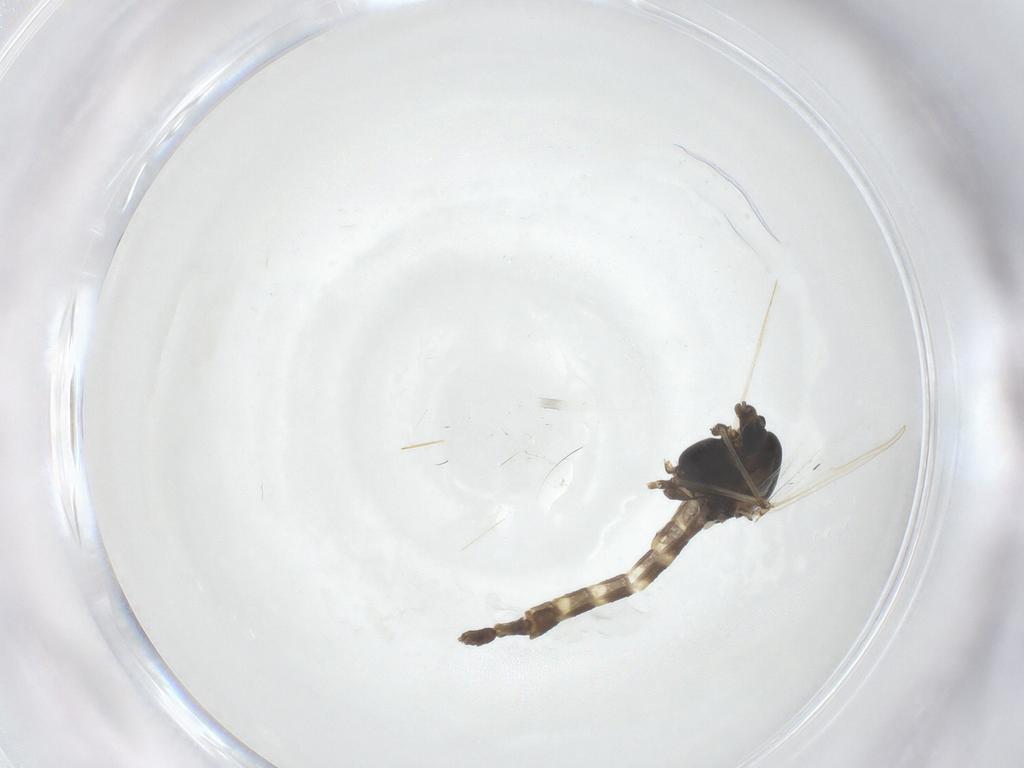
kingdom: Animalia
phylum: Arthropoda
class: Insecta
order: Diptera
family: Chironomidae
